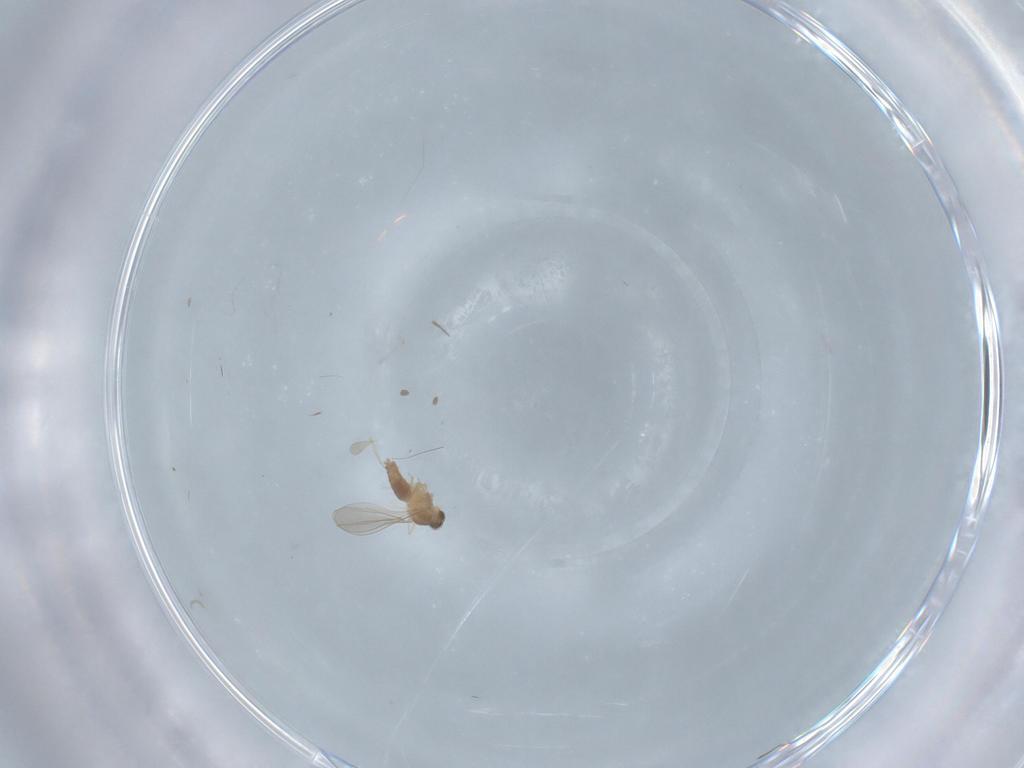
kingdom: Animalia
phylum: Arthropoda
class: Insecta
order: Diptera
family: Cecidomyiidae
